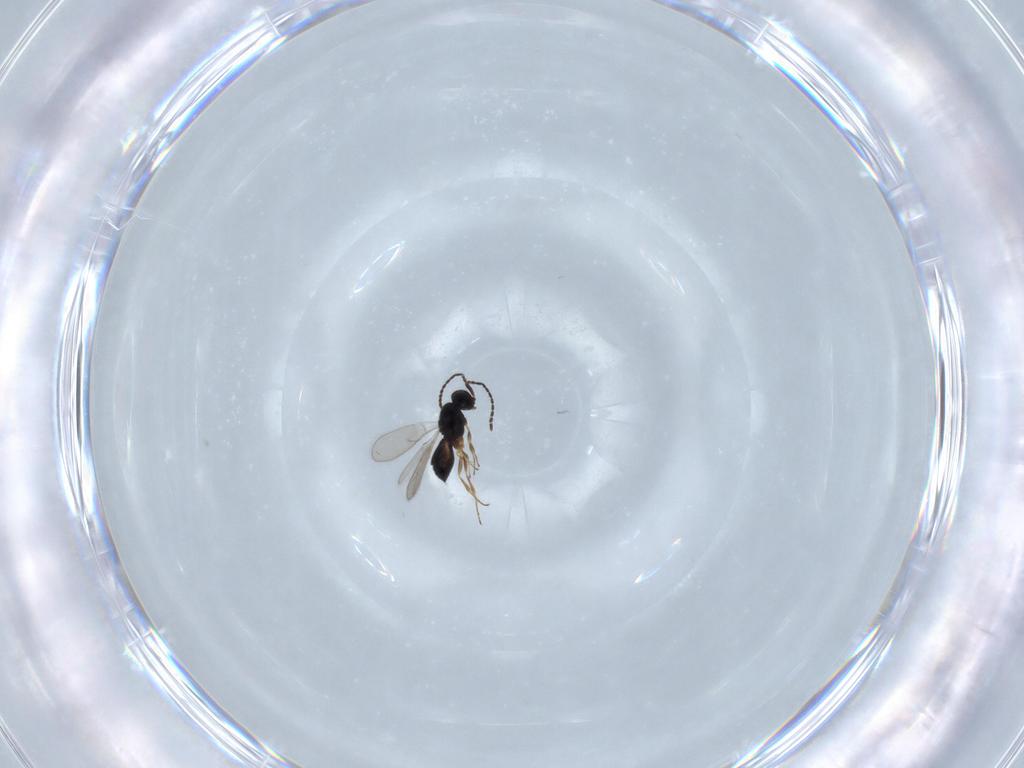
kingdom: Animalia
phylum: Arthropoda
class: Insecta
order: Hymenoptera
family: Scelionidae
